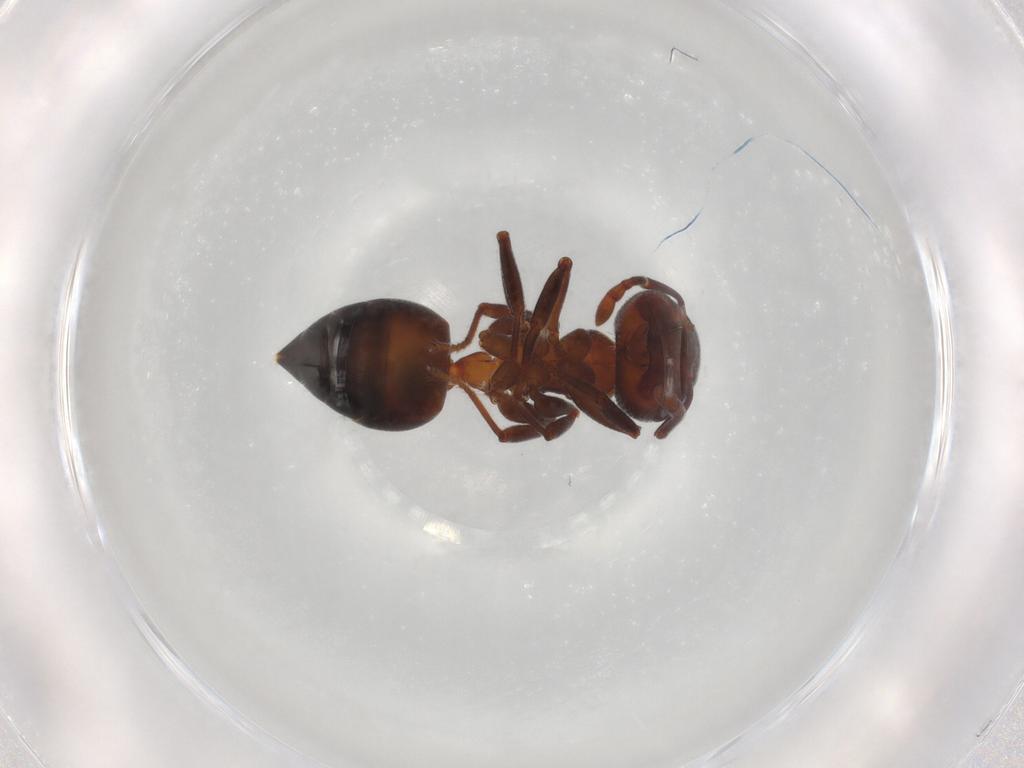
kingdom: Animalia
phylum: Arthropoda
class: Insecta
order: Hymenoptera
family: Formicidae
